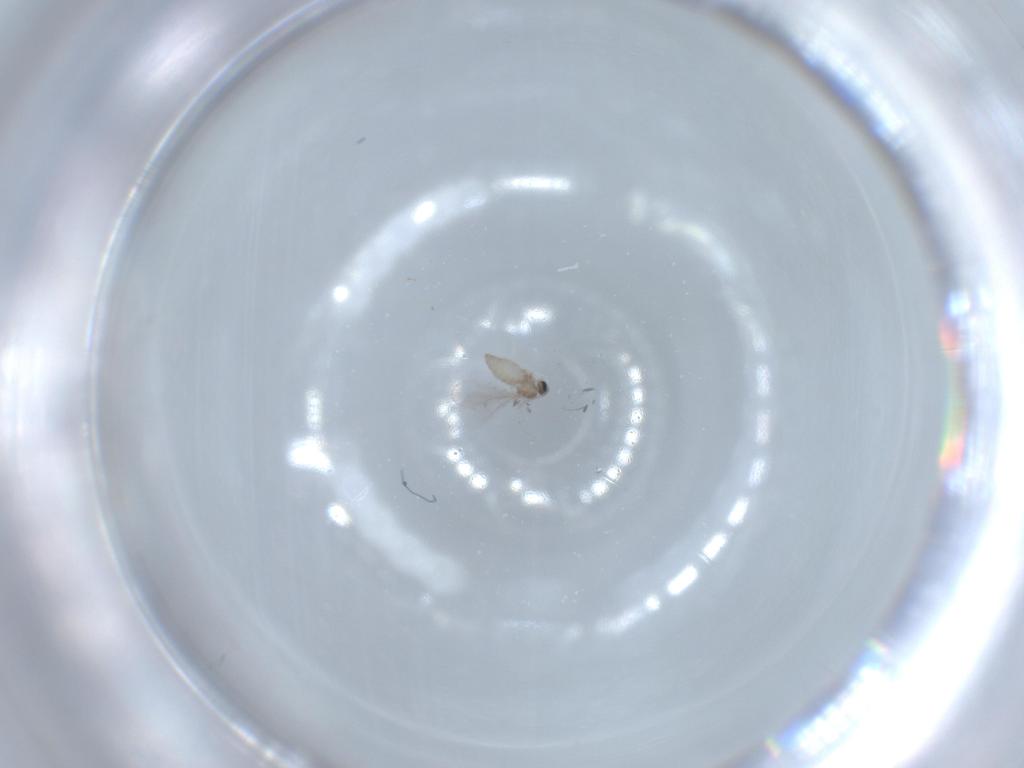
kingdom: Animalia
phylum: Arthropoda
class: Insecta
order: Diptera
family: Cecidomyiidae
